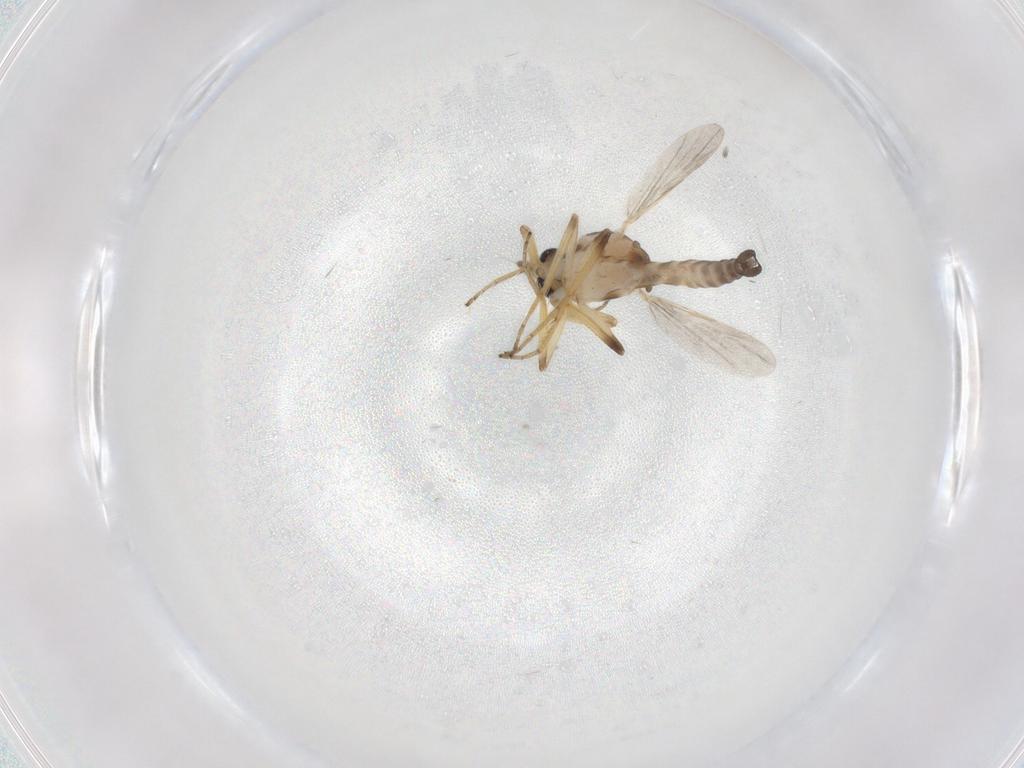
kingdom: Animalia
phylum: Arthropoda
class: Insecta
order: Diptera
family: Ceratopogonidae
